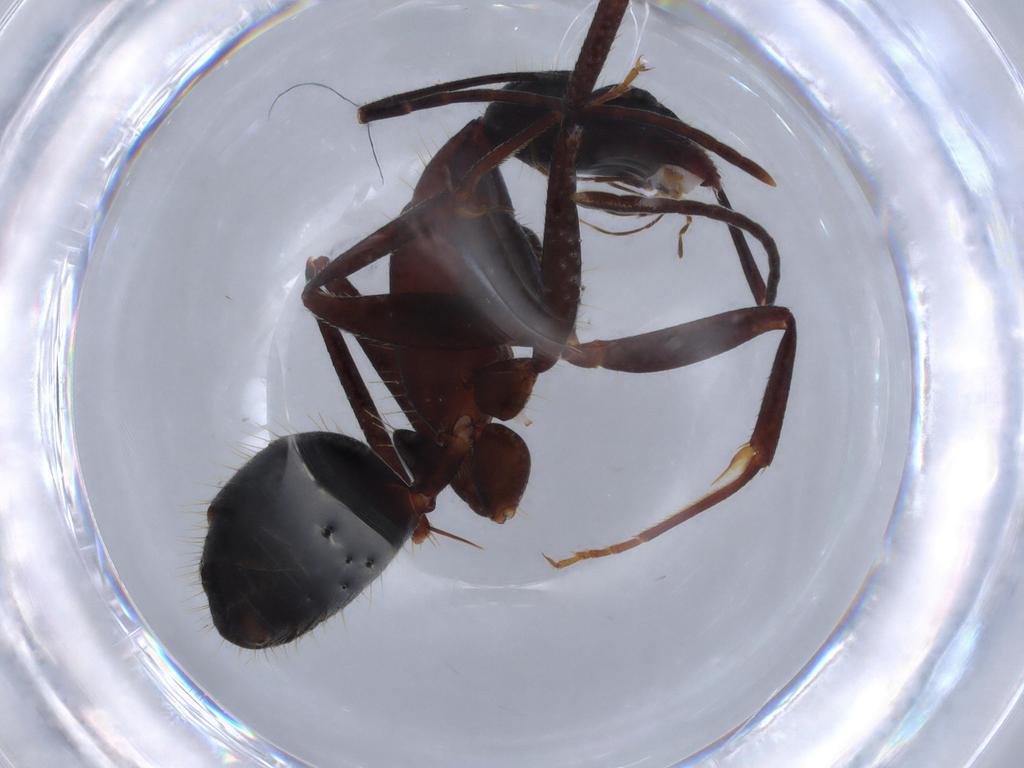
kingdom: Animalia
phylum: Arthropoda
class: Insecta
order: Hymenoptera
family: Formicidae
